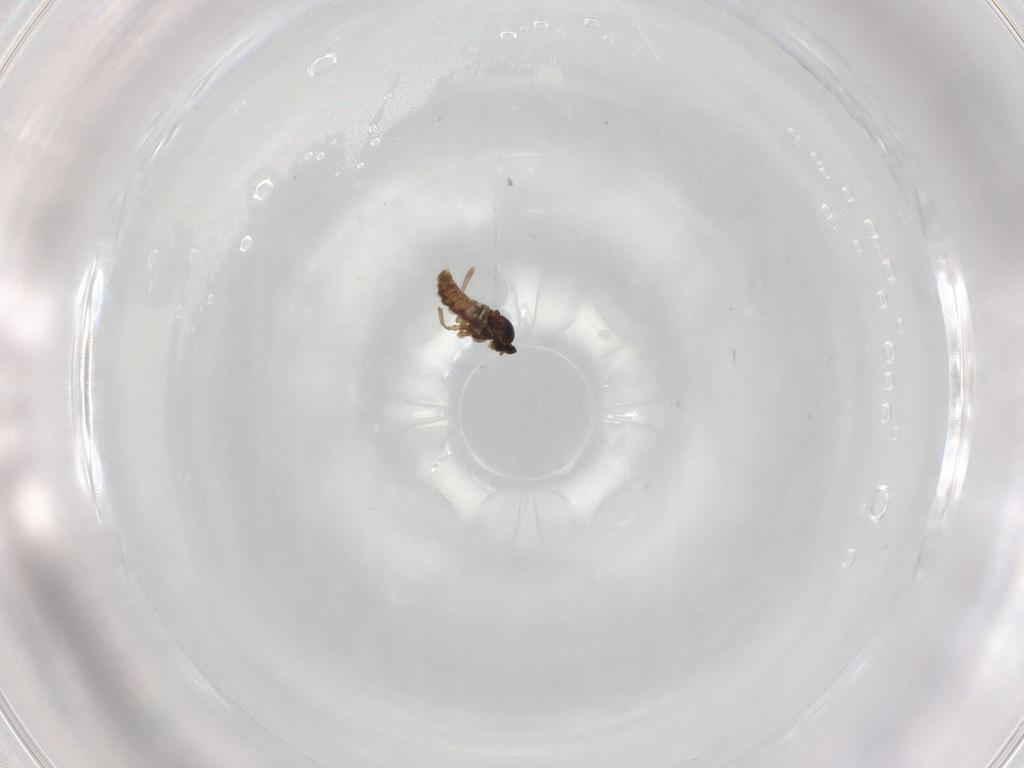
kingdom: Animalia
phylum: Arthropoda
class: Insecta
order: Diptera
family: Cecidomyiidae
